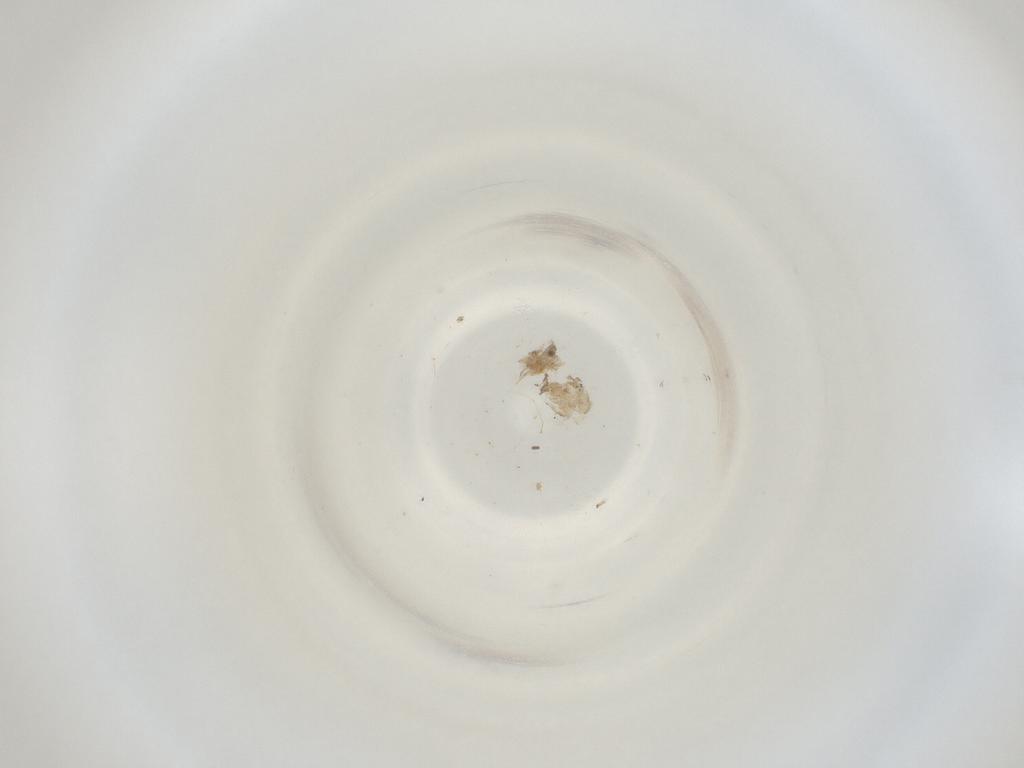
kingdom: Animalia
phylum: Arthropoda
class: Insecta
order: Diptera
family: Cecidomyiidae
